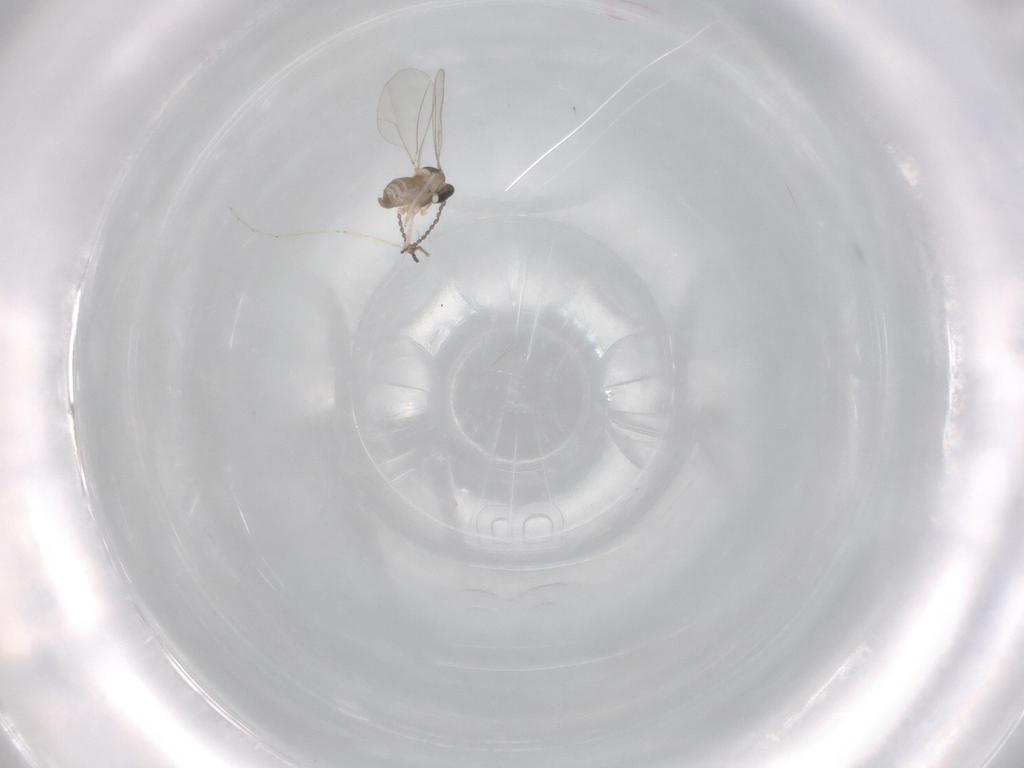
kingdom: Animalia
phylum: Arthropoda
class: Insecta
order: Diptera
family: Cecidomyiidae
